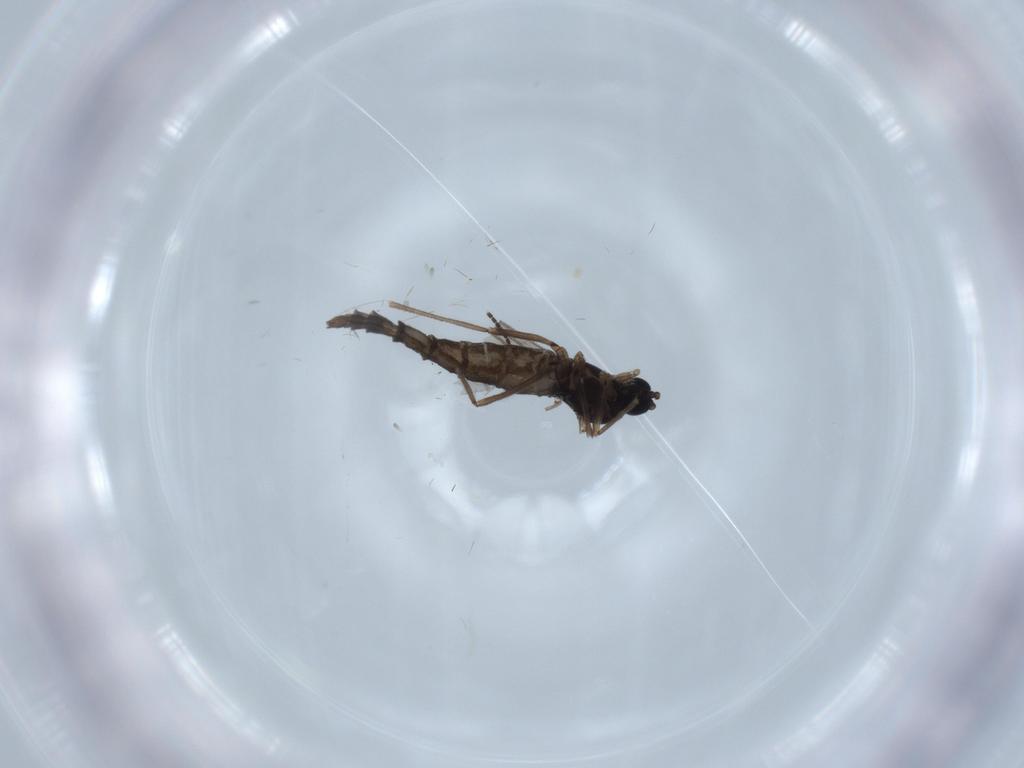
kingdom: Animalia
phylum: Arthropoda
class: Insecta
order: Diptera
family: Sciaridae
